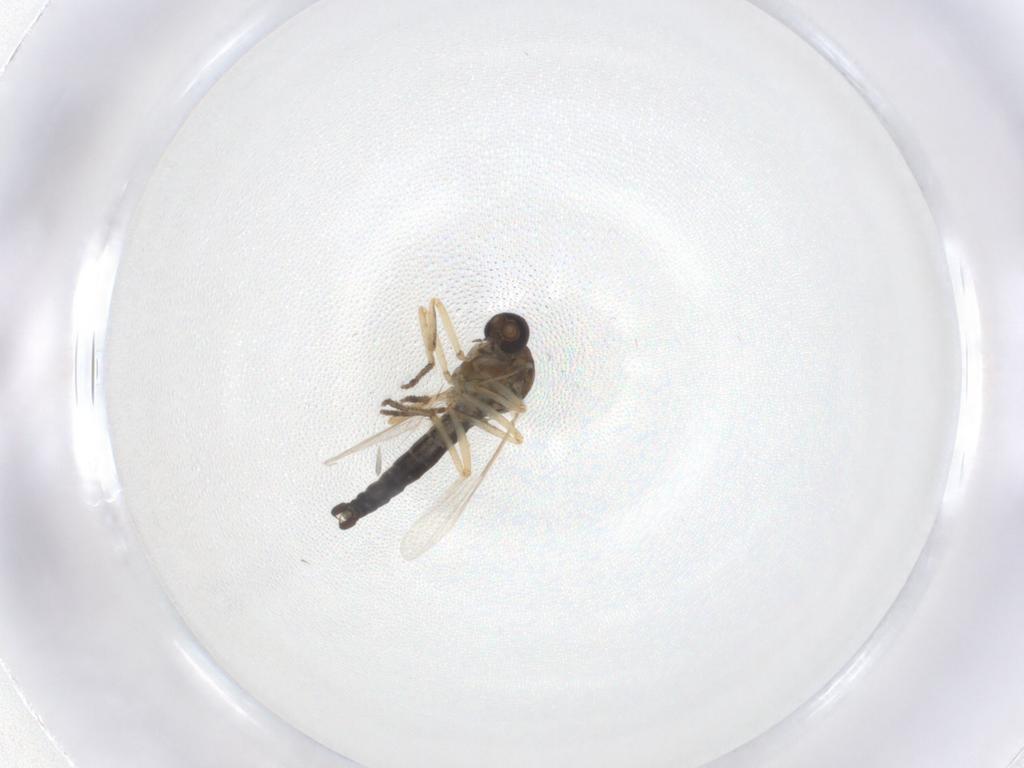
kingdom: Animalia
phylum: Arthropoda
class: Insecta
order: Diptera
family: Ceratopogonidae
